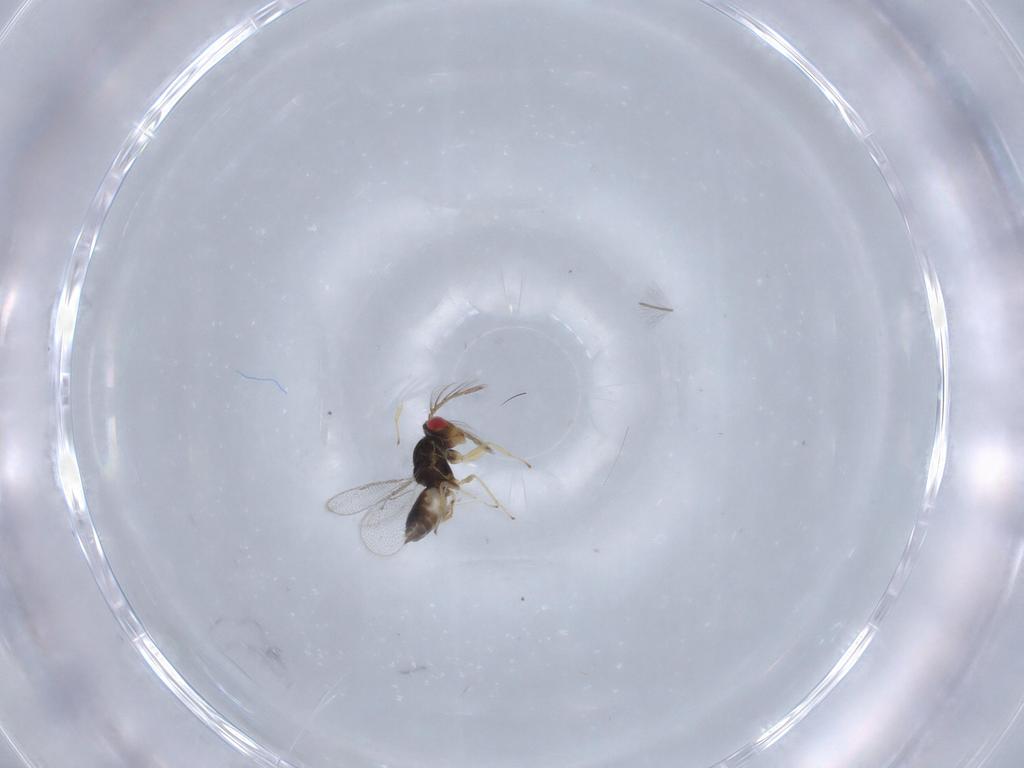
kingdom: Animalia
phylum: Arthropoda
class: Insecta
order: Hymenoptera
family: Eulophidae
